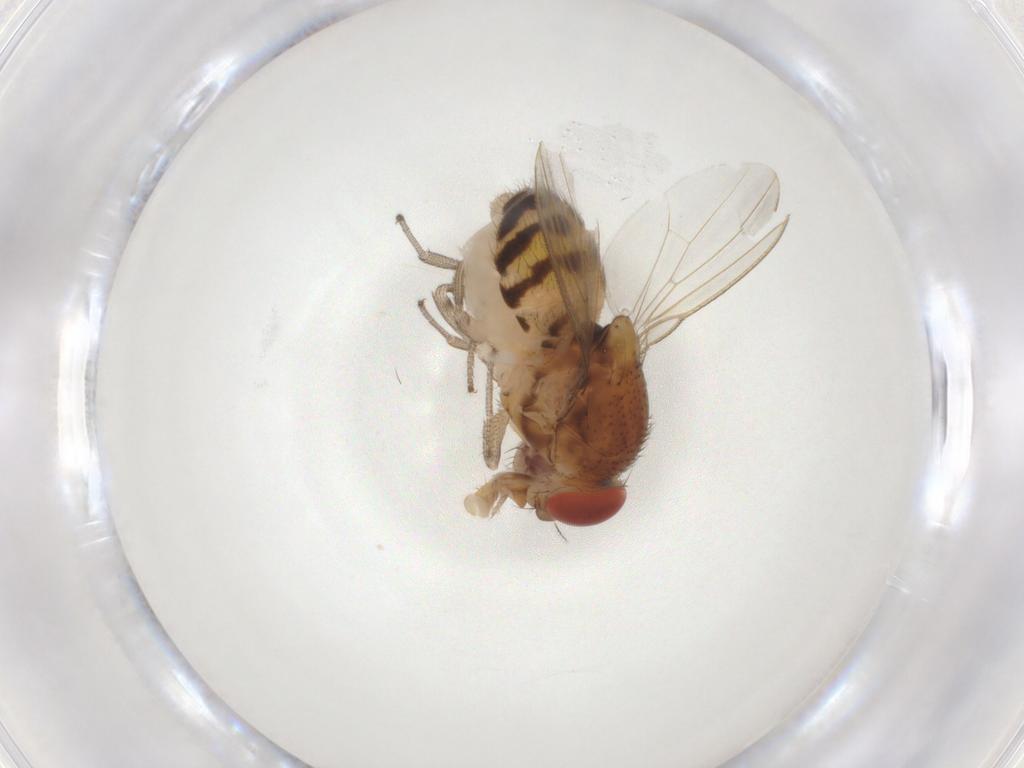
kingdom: Animalia
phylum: Arthropoda
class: Insecta
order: Diptera
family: Drosophilidae
